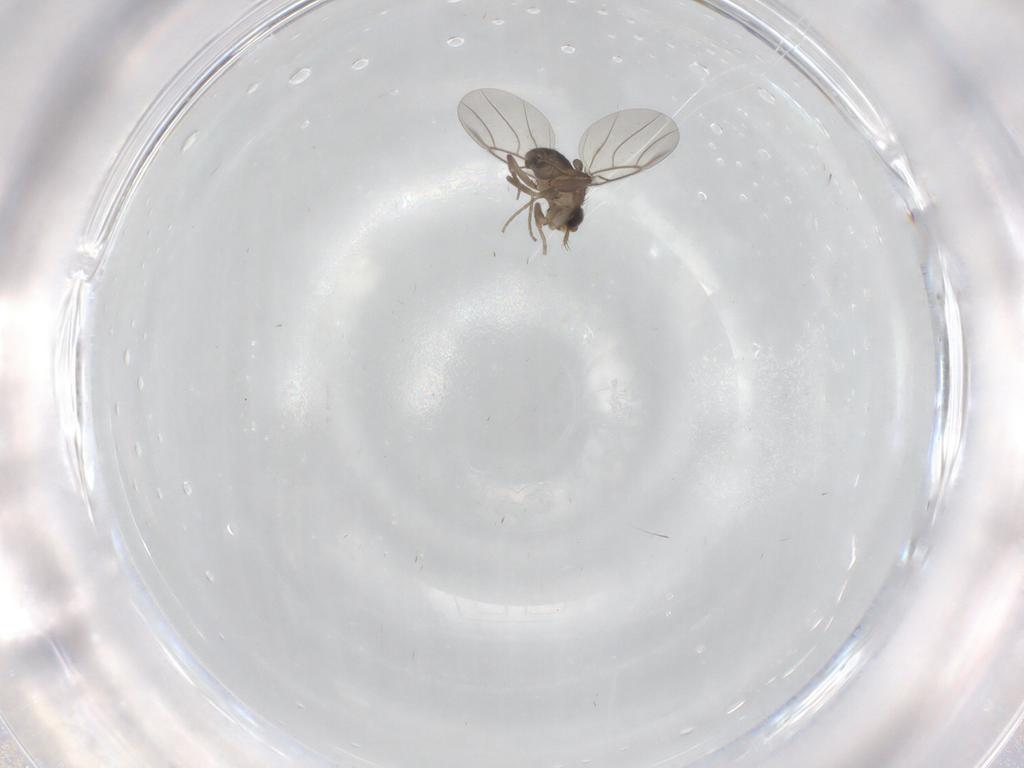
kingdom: Animalia
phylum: Arthropoda
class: Insecta
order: Diptera
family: Phoridae
